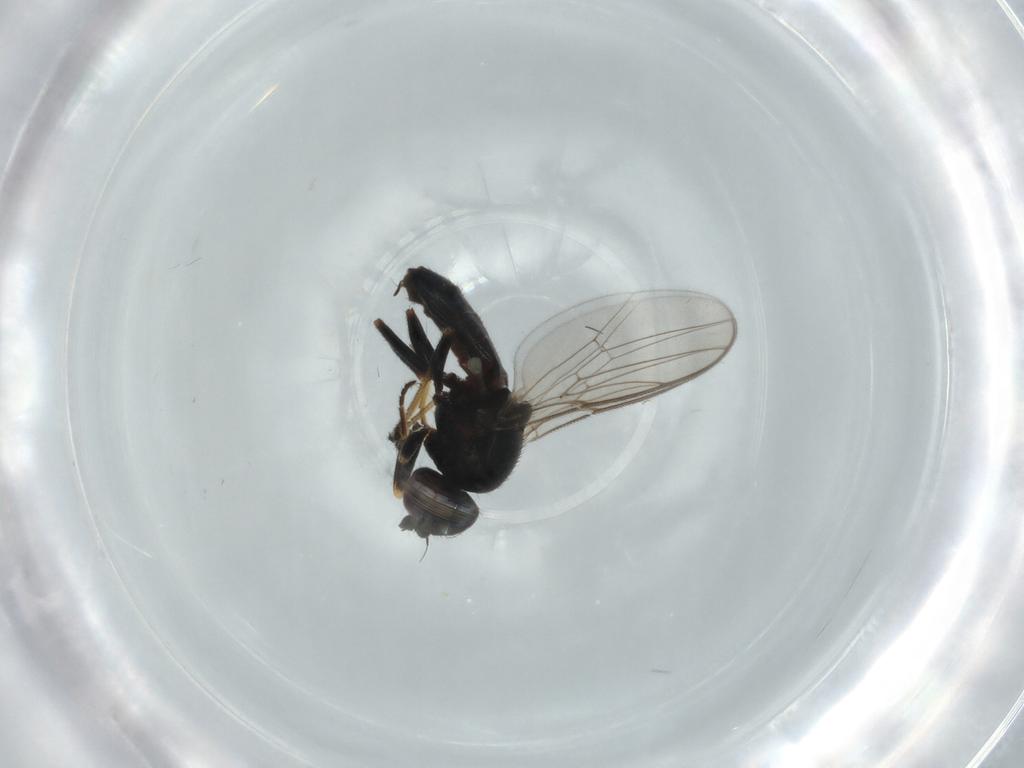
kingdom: Animalia
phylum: Arthropoda
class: Insecta
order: Diptera
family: Chloropidae
